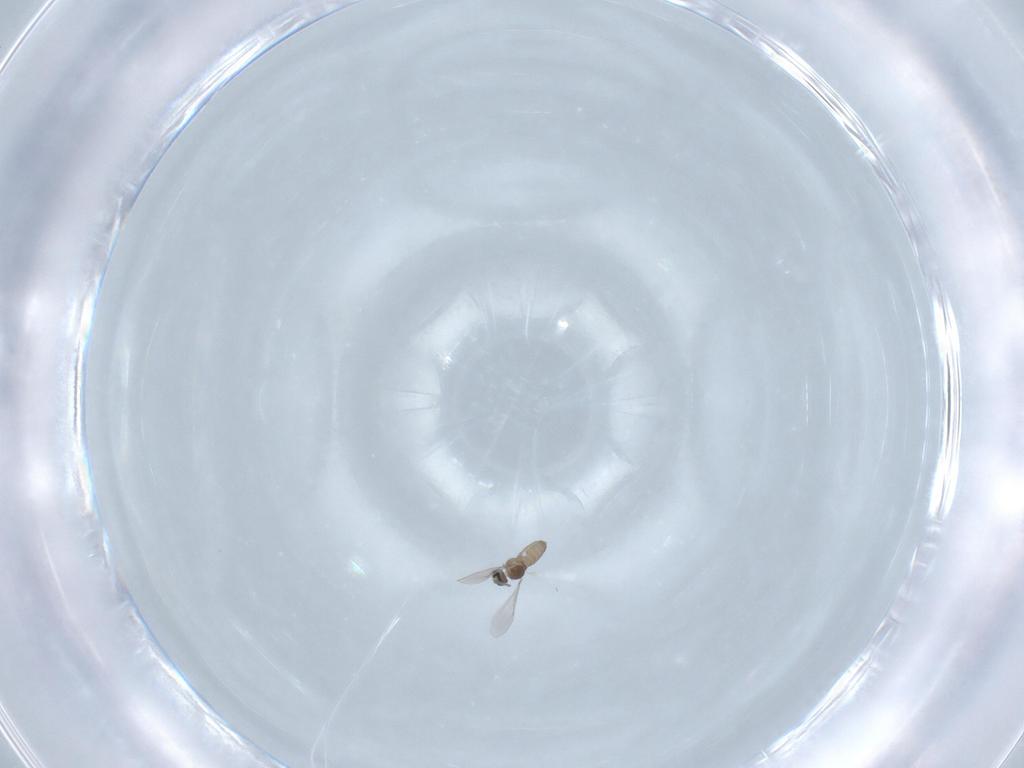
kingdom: Animalia
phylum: Arthropoda
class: Insecta
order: Diptera
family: Cecidomyiidae
